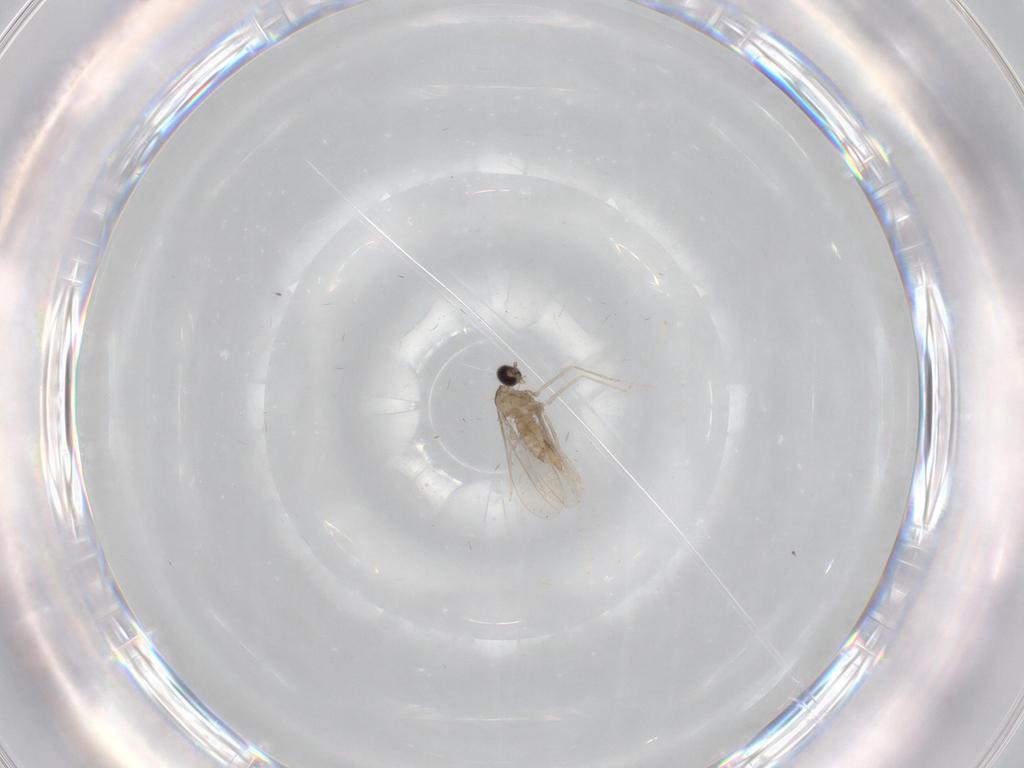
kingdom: Animalia
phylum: Arthropoda
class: Insecta
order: Diptera
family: Cecidomyiidae
